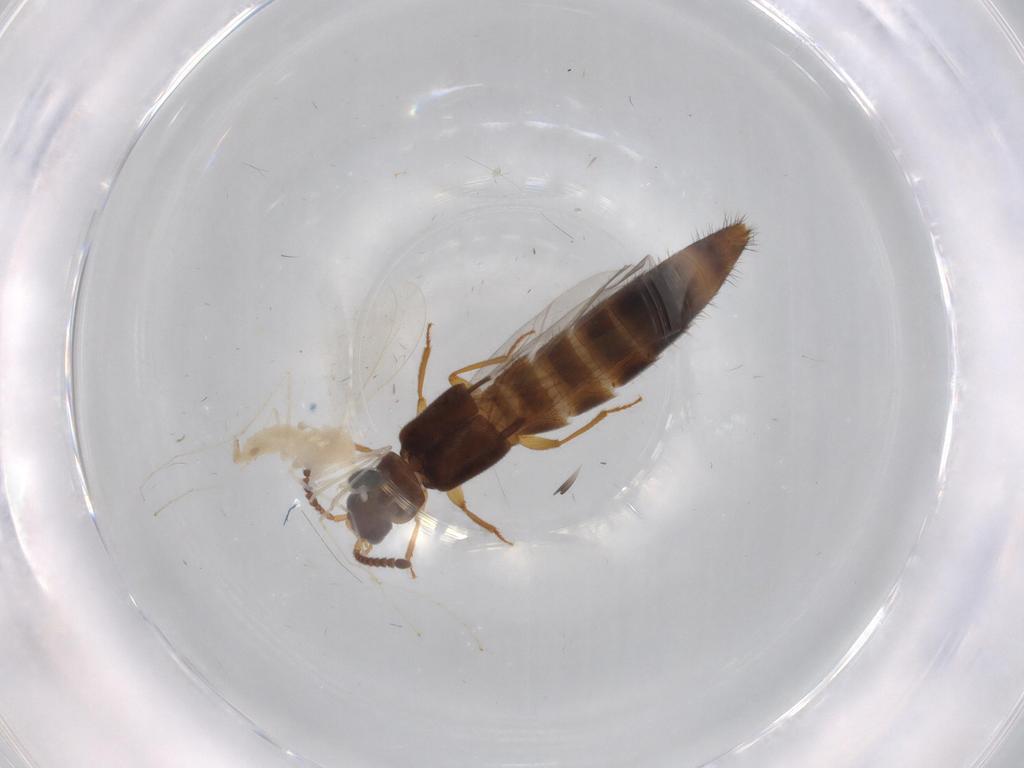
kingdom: Animalia
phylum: Arthropoda
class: Insecta
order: Coleoptera
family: Staphylinidae
